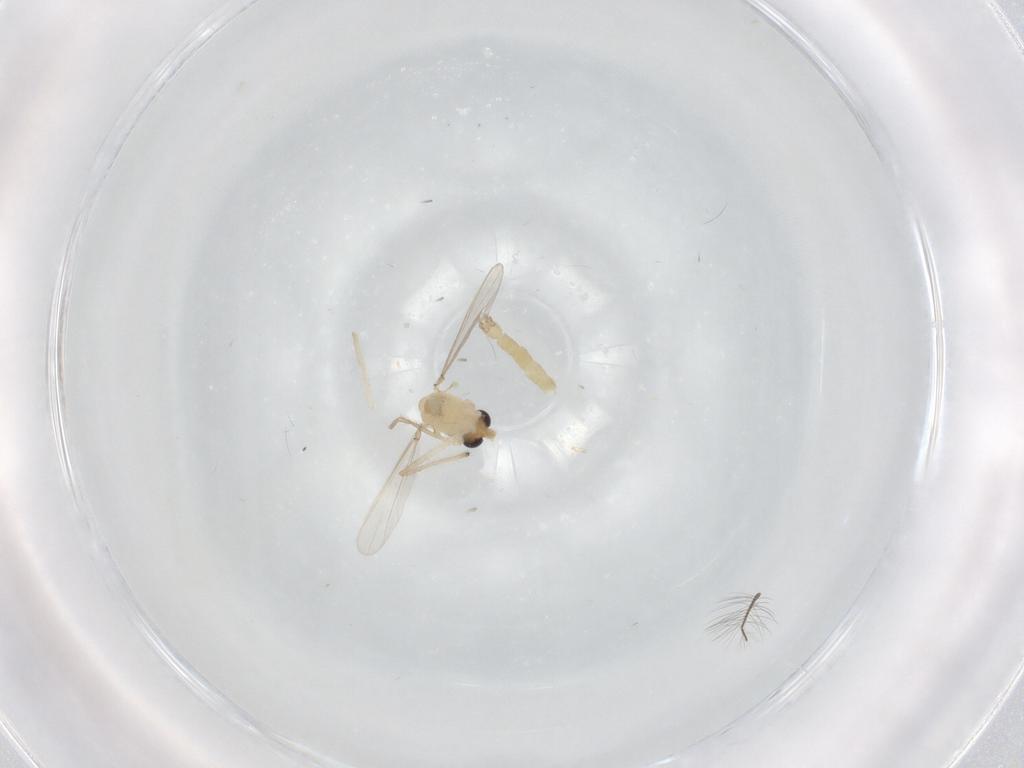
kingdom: Animalia
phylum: Arthropoda
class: Insecta
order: Diptera
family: Chironomidae
